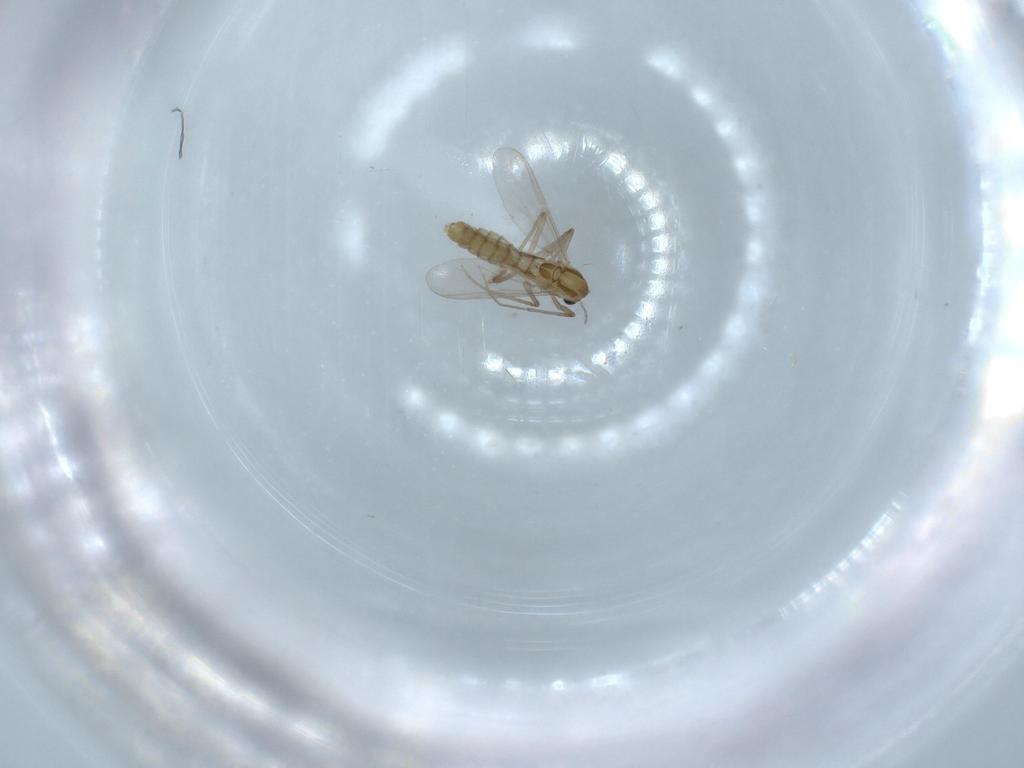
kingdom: Animalia
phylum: Arthropoda
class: Insecta
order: Diptera
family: Chironomidae
